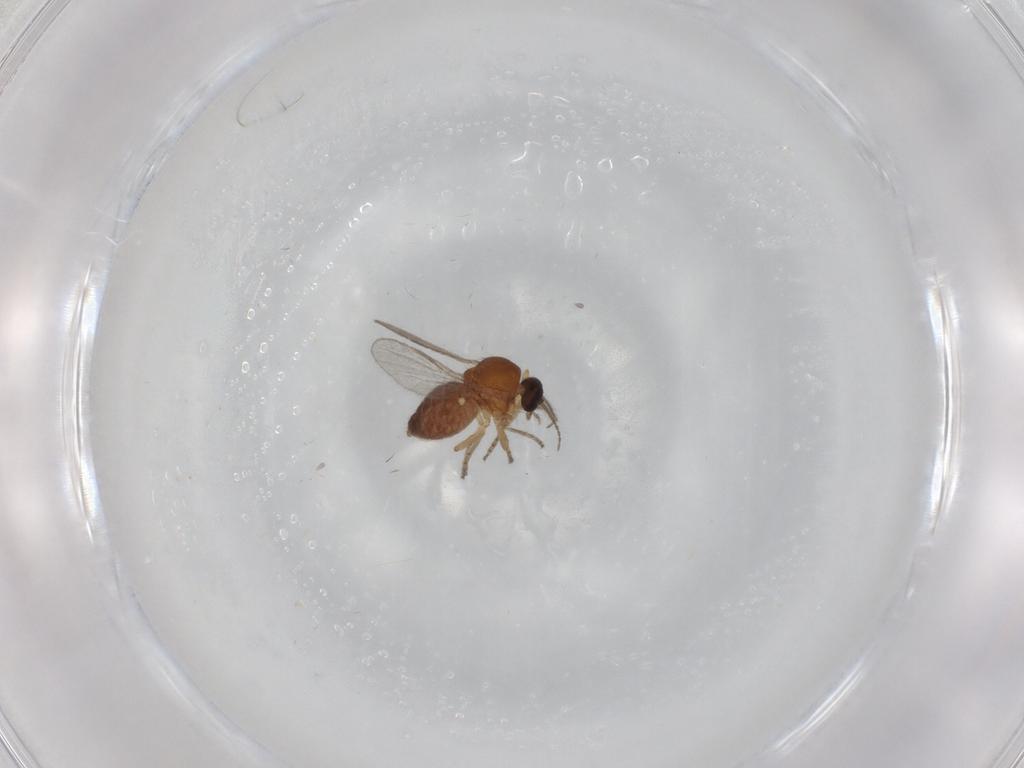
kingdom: Animalia
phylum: Arthropoda
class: Insecta
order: Diptera
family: Ceratopogonidae
